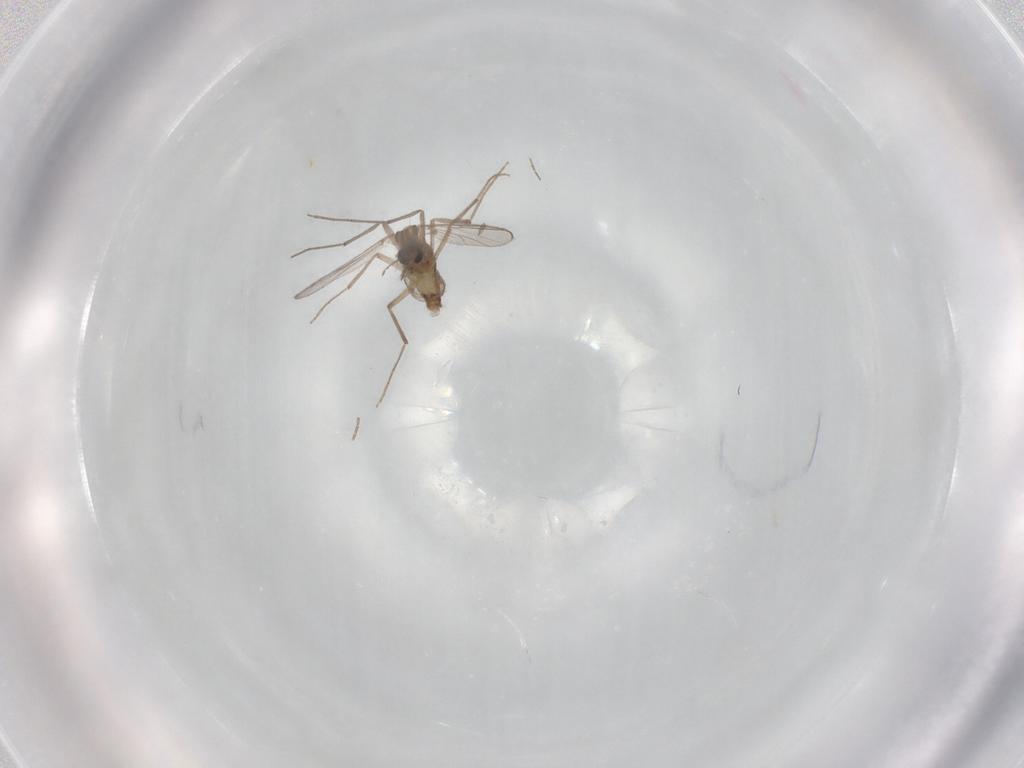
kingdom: Animalia
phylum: Arthropoda
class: Insecta
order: Diptera
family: Chironomidae
